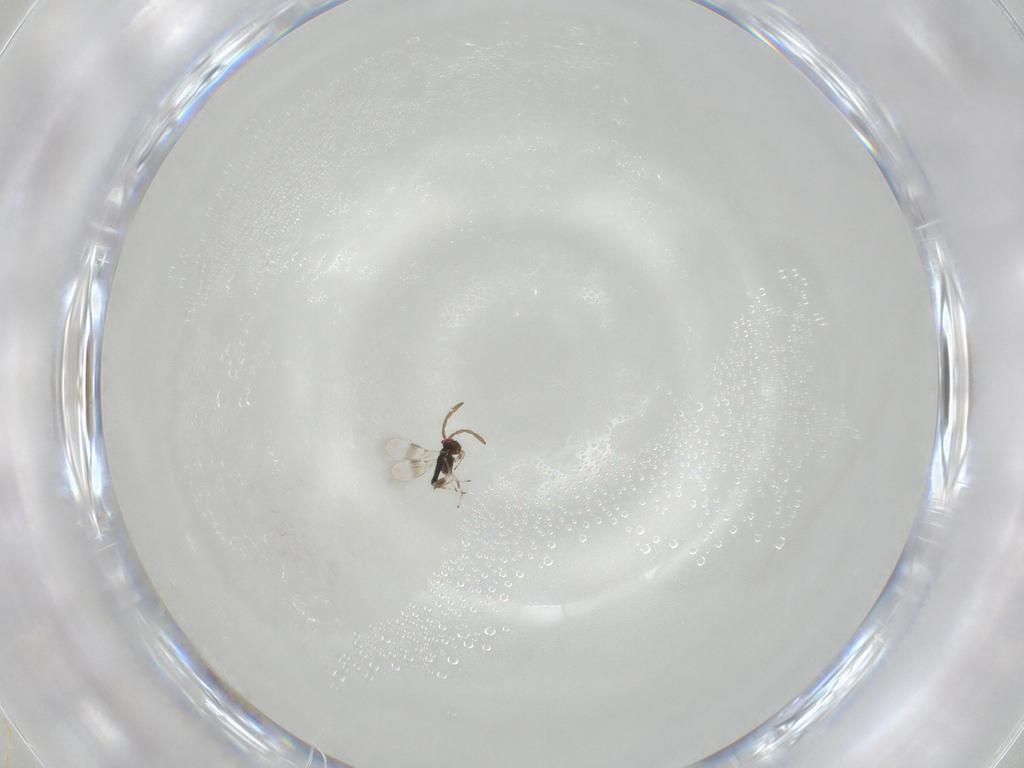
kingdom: Animalia
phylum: Arthropoda
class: Insecta
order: Hymenoptera
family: Azotidae
